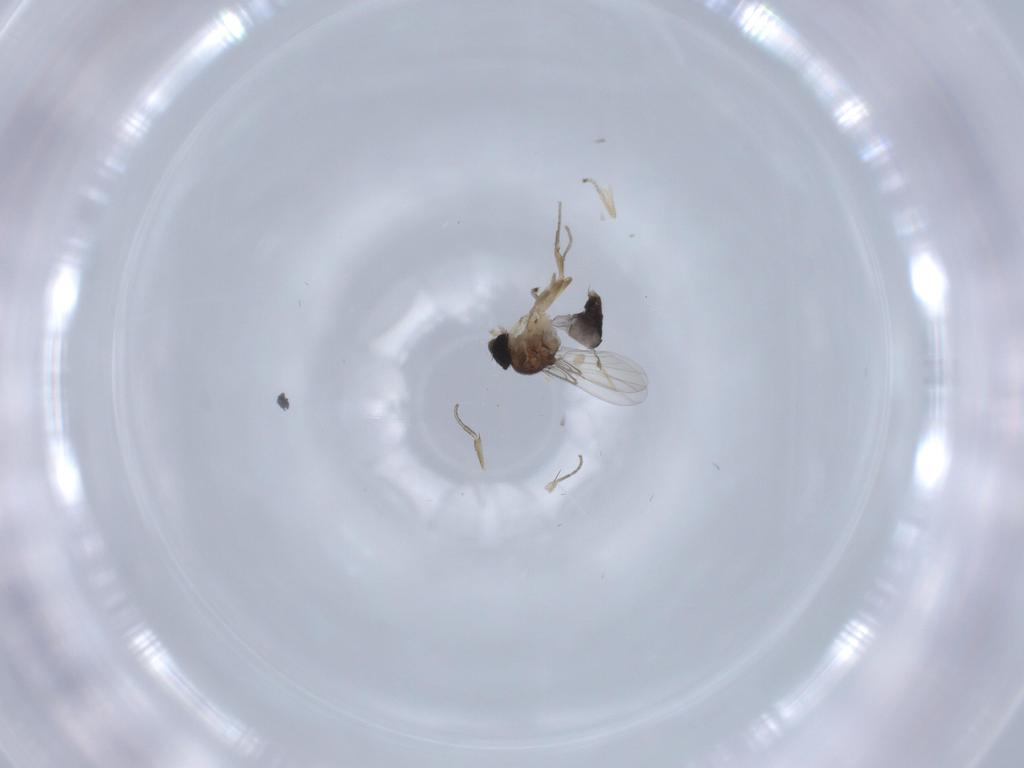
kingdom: Animalia
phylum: Arthropoda
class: Insecta
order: Diptera
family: Phoridae
